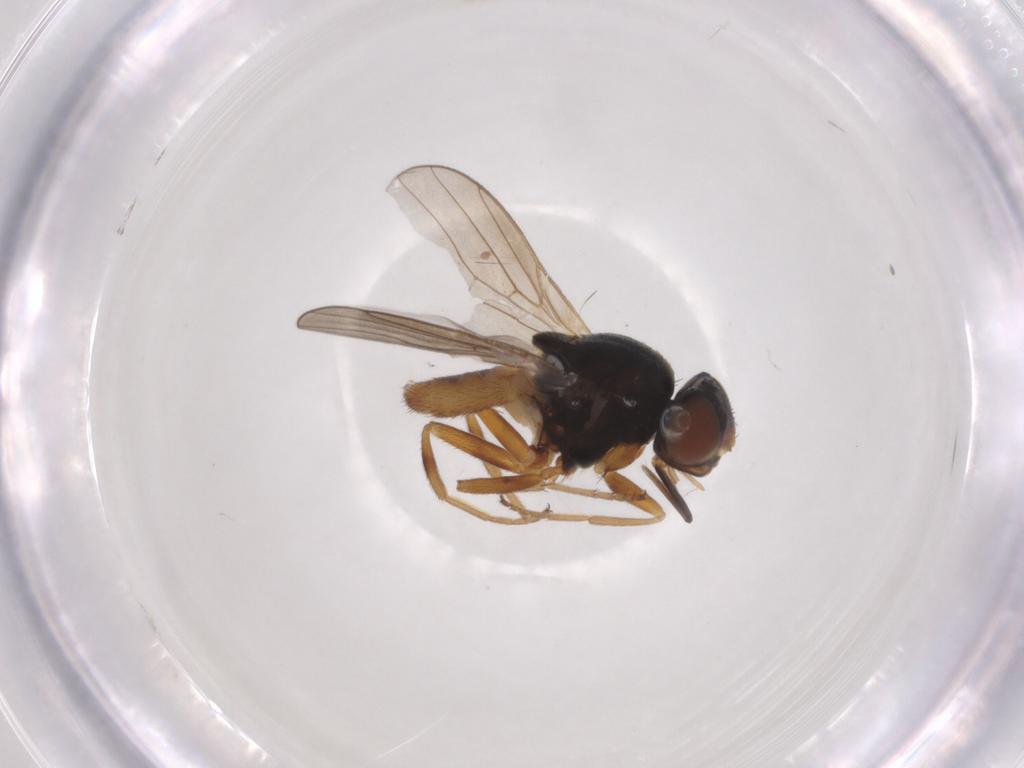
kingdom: Animalia
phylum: Arthropoda
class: Insecta
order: Diptera
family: Chloropidae
